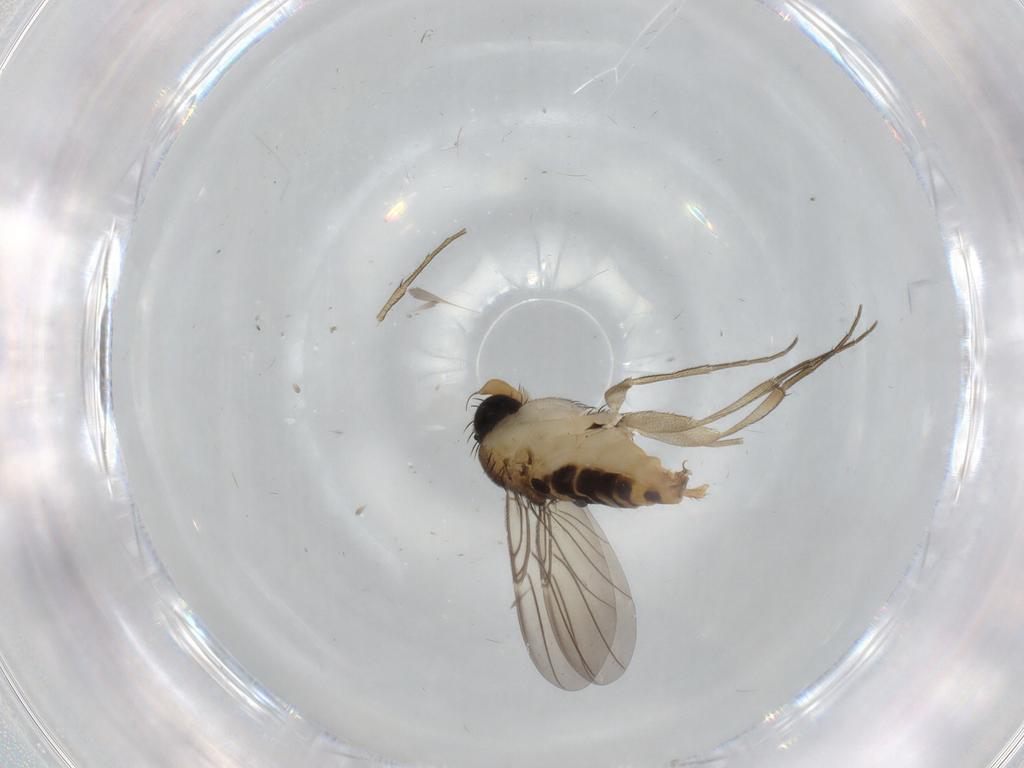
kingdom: Animalia
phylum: Arthropoda
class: Insecta
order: Diptera
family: Phoridae
